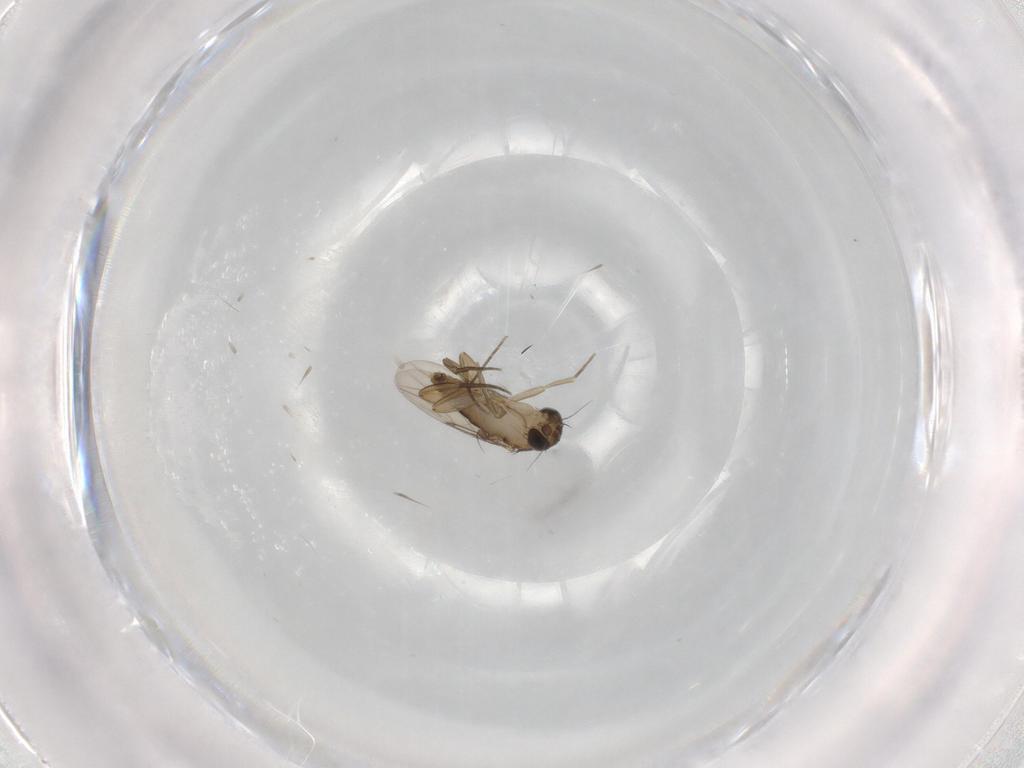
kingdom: Animalia
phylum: Arthropoda
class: Insecta
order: Diptera
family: Phoridae
